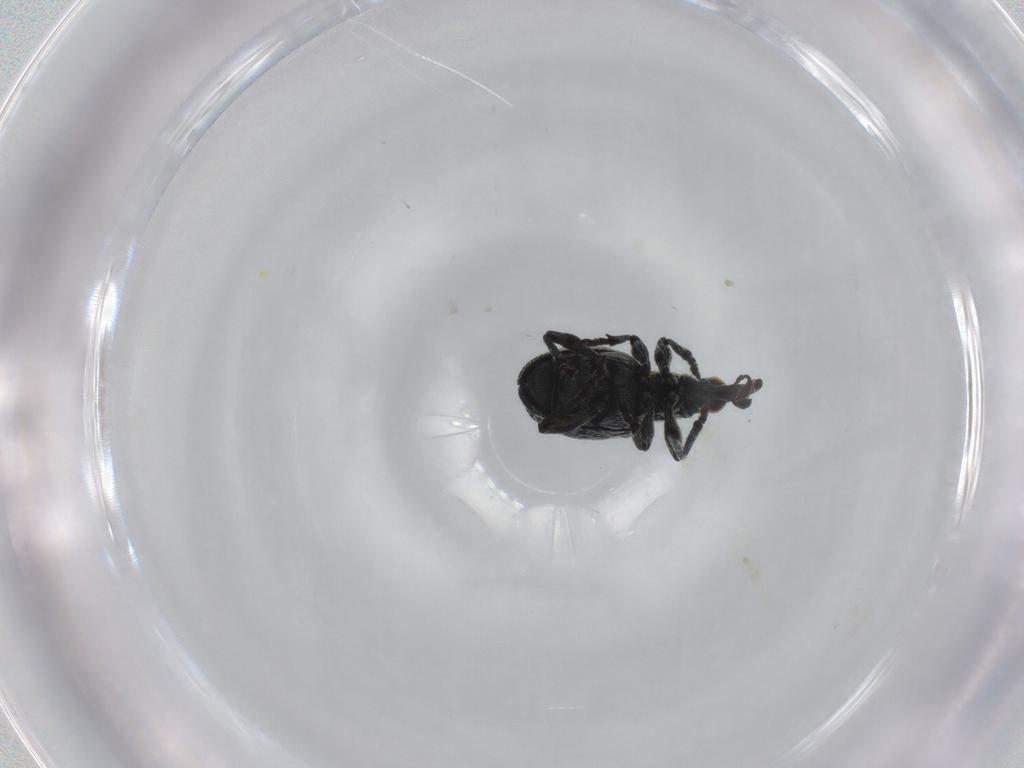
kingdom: Animalia
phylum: Arthropoda
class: Insecta
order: Coleoptera
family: Brentidae
